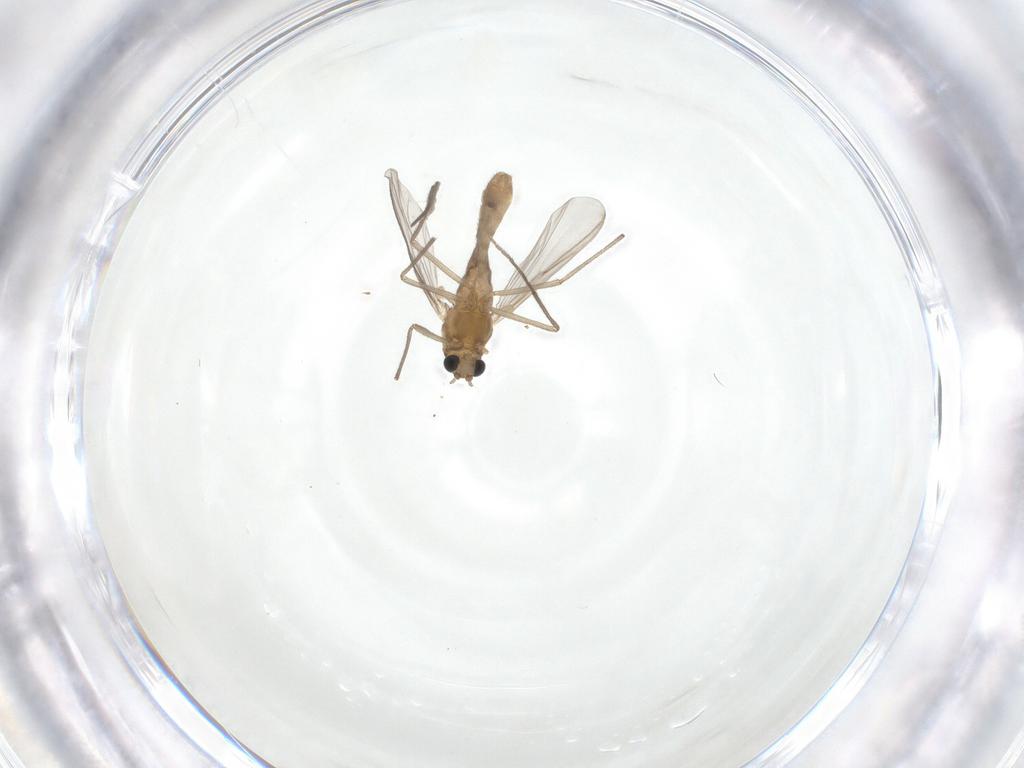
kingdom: Animalia
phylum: Arthropoda
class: Insecta
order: Diptera
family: Chironomidae
